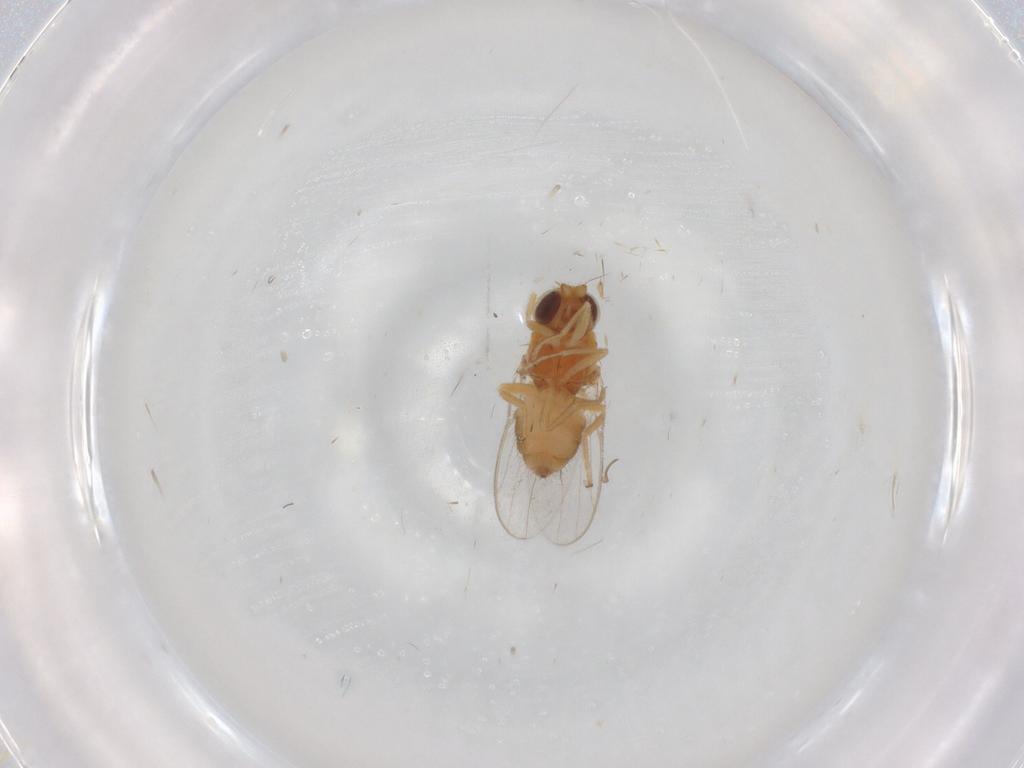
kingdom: Animalia
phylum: Arthropoda
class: Insecta
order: Diptera
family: Chloropidae
